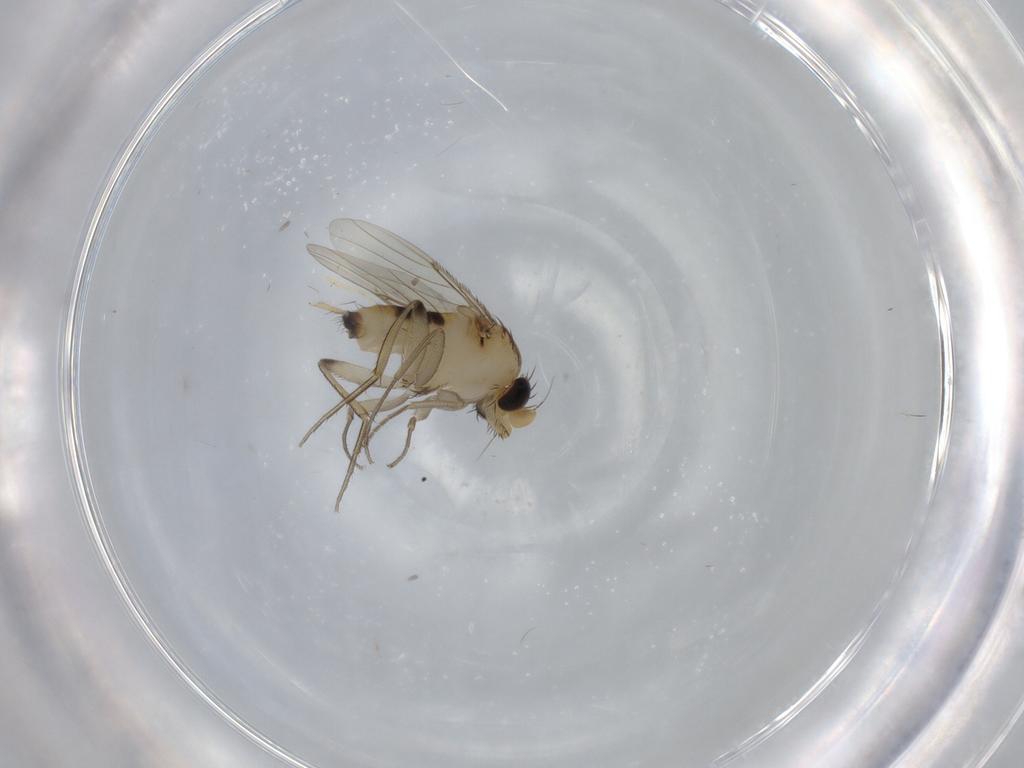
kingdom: Animalia
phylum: Arthropoda
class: Insecta
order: Diptera
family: Phoridae
